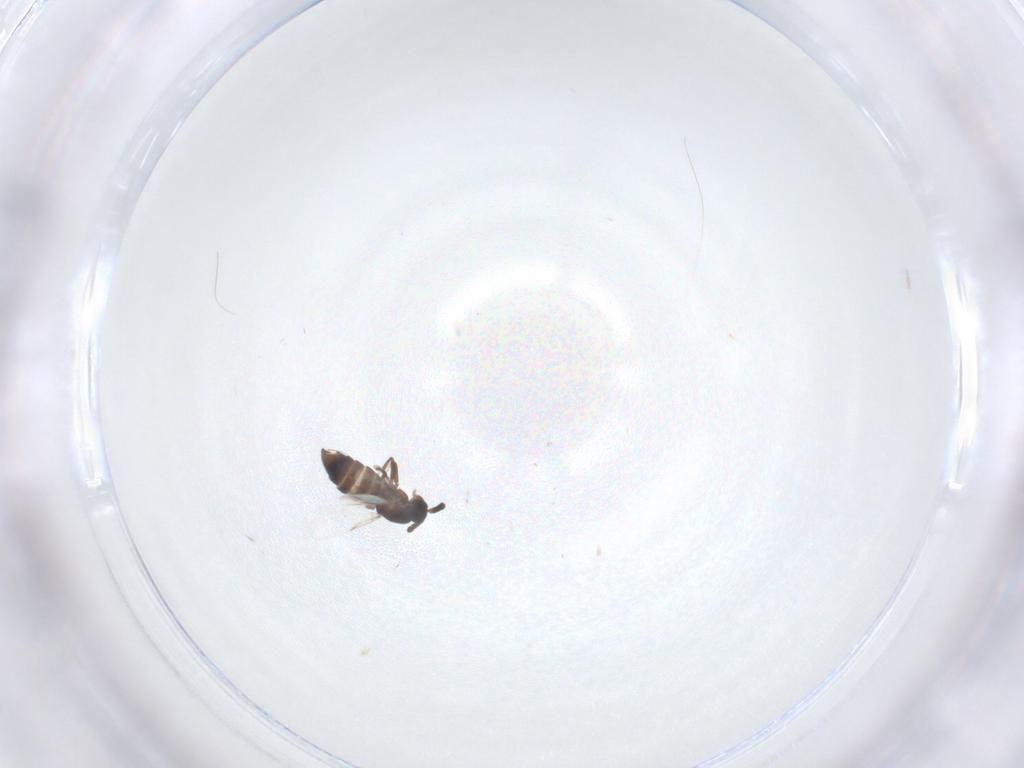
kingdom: Animalia
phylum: Arthropoda
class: Insecta
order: Diptera
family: Scatopsidae
